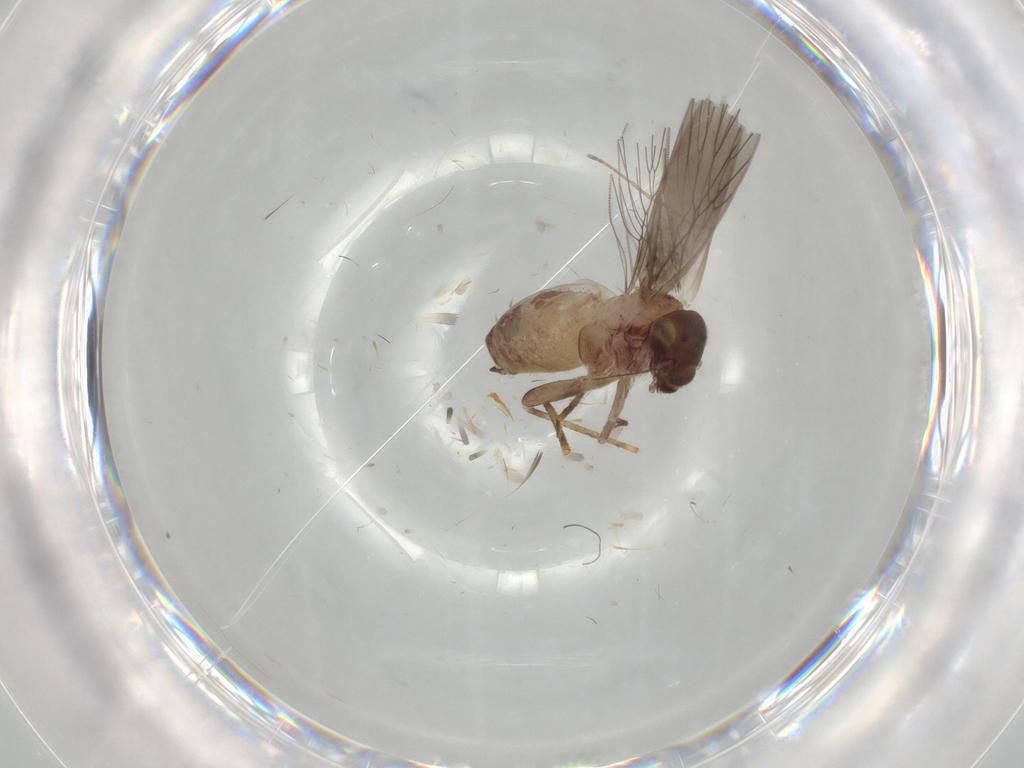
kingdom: Animalia
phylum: Arthropoda
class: Insecta
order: Psocodea
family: Lepidopsocidae
